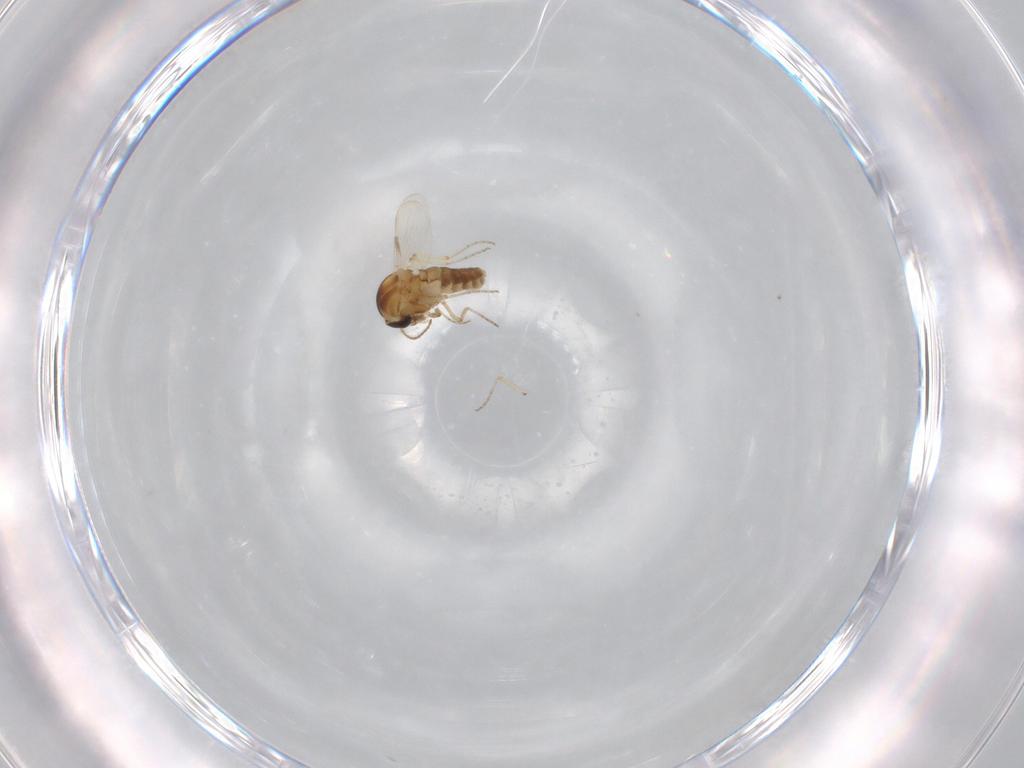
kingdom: Animalia
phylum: Arthropoda
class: Insecta
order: Diptera
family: Ceratopogonidae
